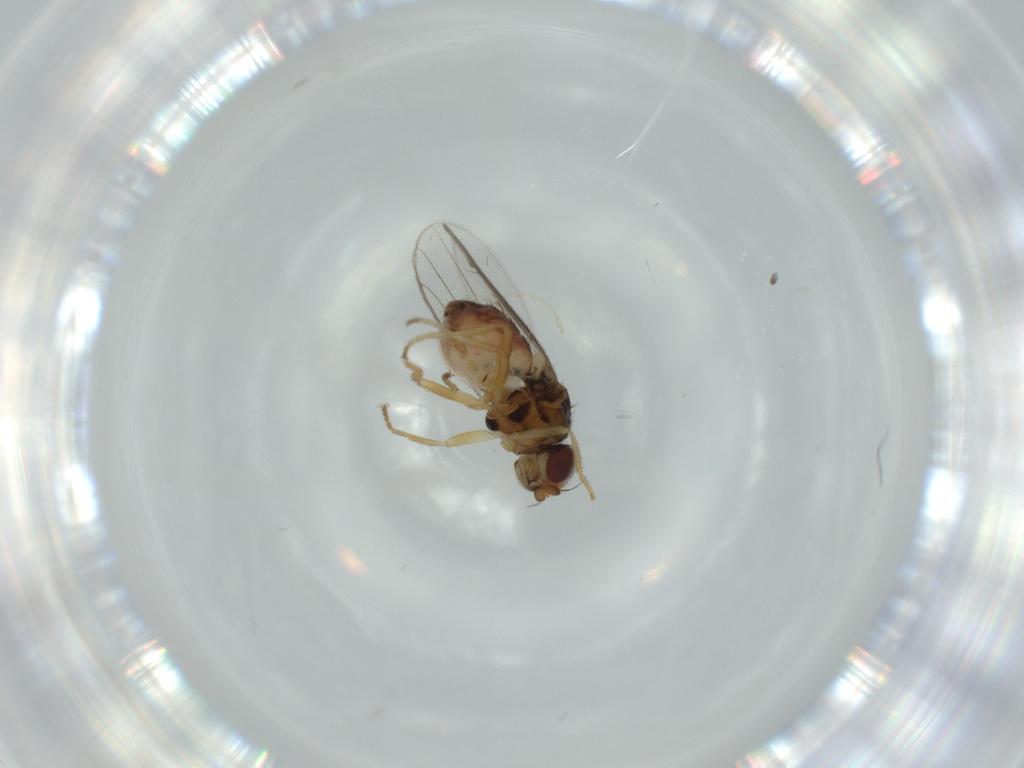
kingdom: Animalia
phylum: Arthropoda
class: Insecta
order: Diptera
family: Chloropidae
